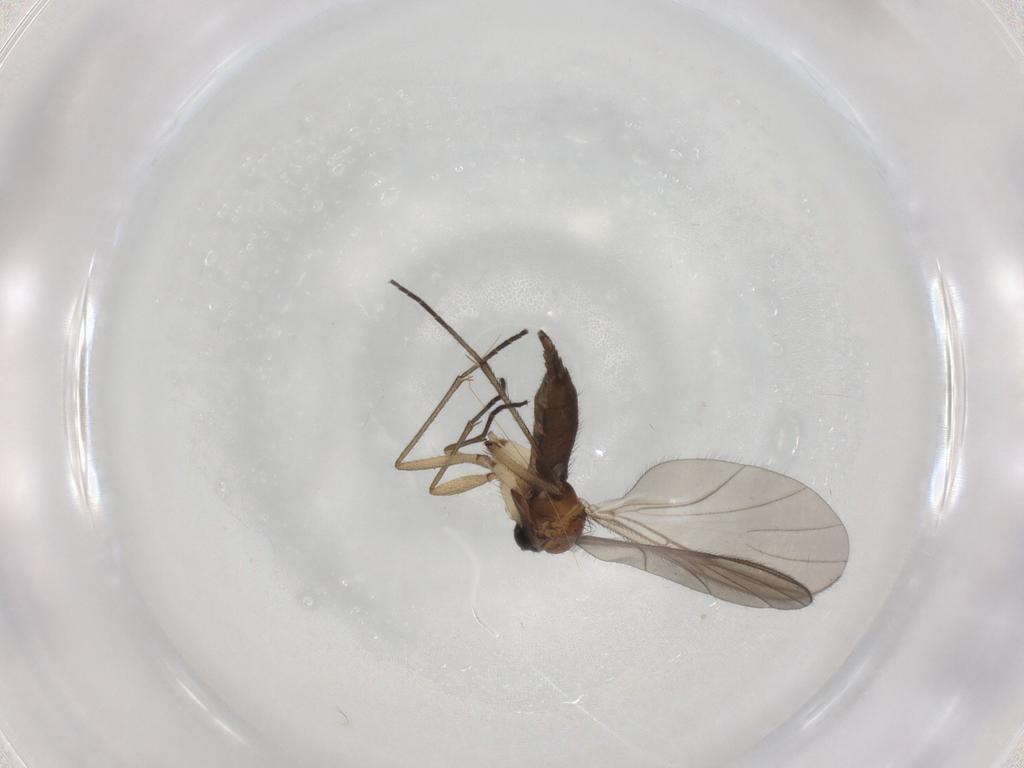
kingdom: Animalia
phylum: Arthropoda
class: Insecta
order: Diptera
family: Sciaridae
